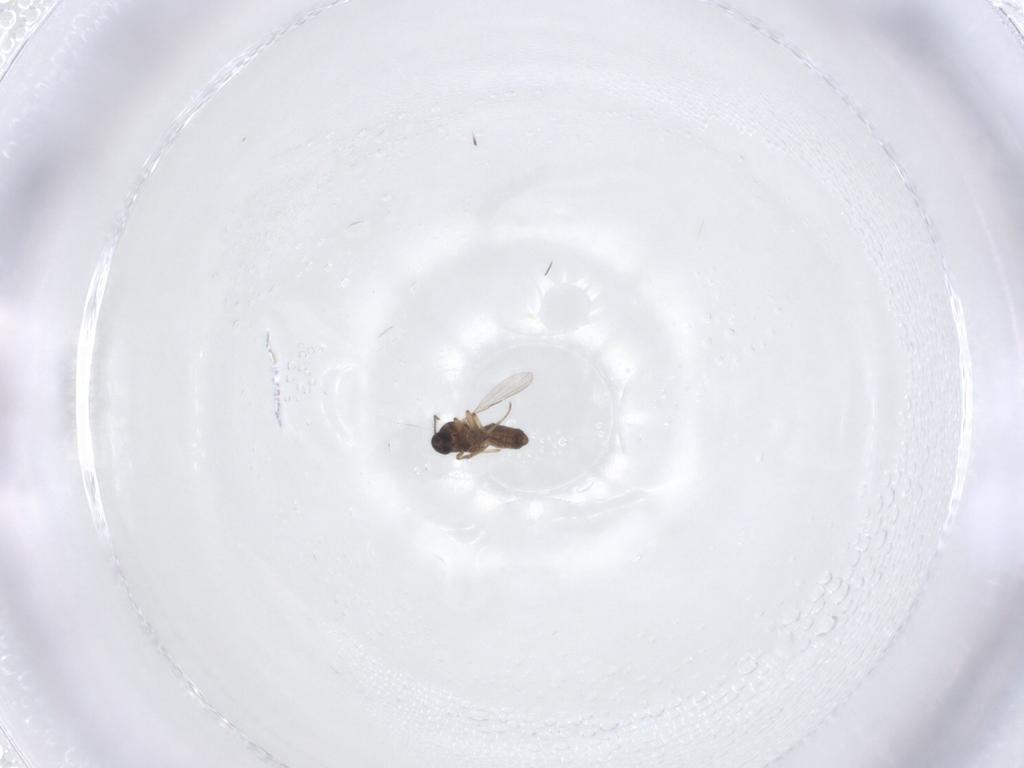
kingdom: Animalia
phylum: Arthropoda
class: Insecta
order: Diptera
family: Ceratopogonidae
